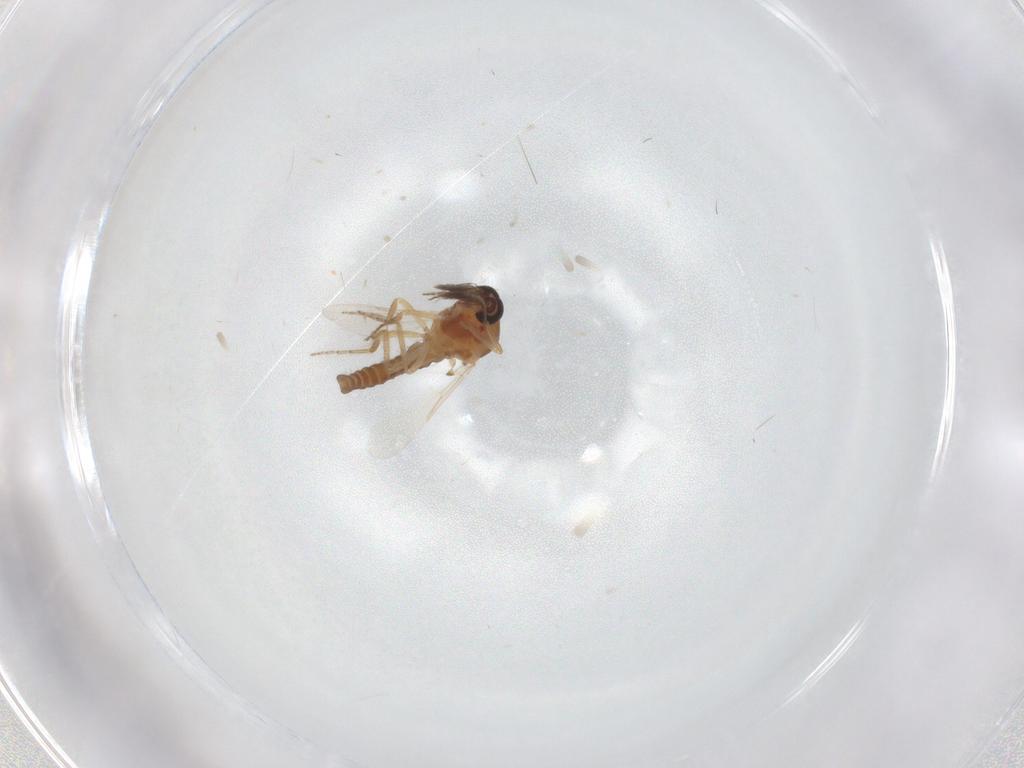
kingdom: Animalia
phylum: Arthropoda
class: Insecta
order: Diptera
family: Ceratopogonidae
